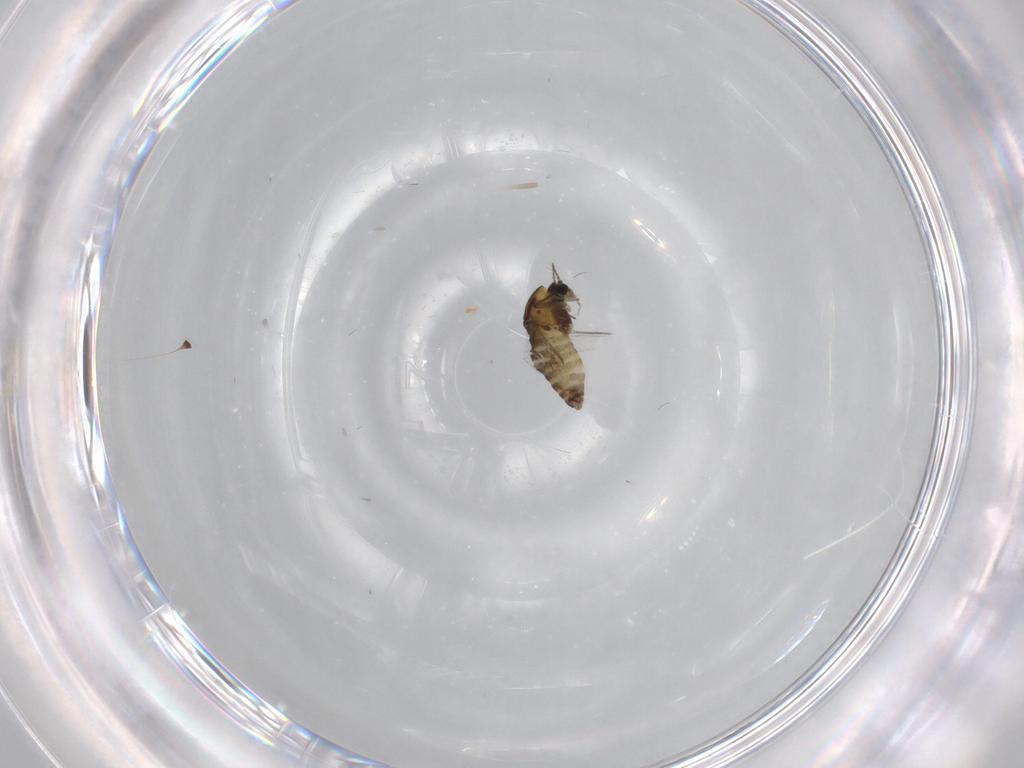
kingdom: Animalia
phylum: Arthropoda
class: Insecta
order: Diptera
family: Chironomidae
